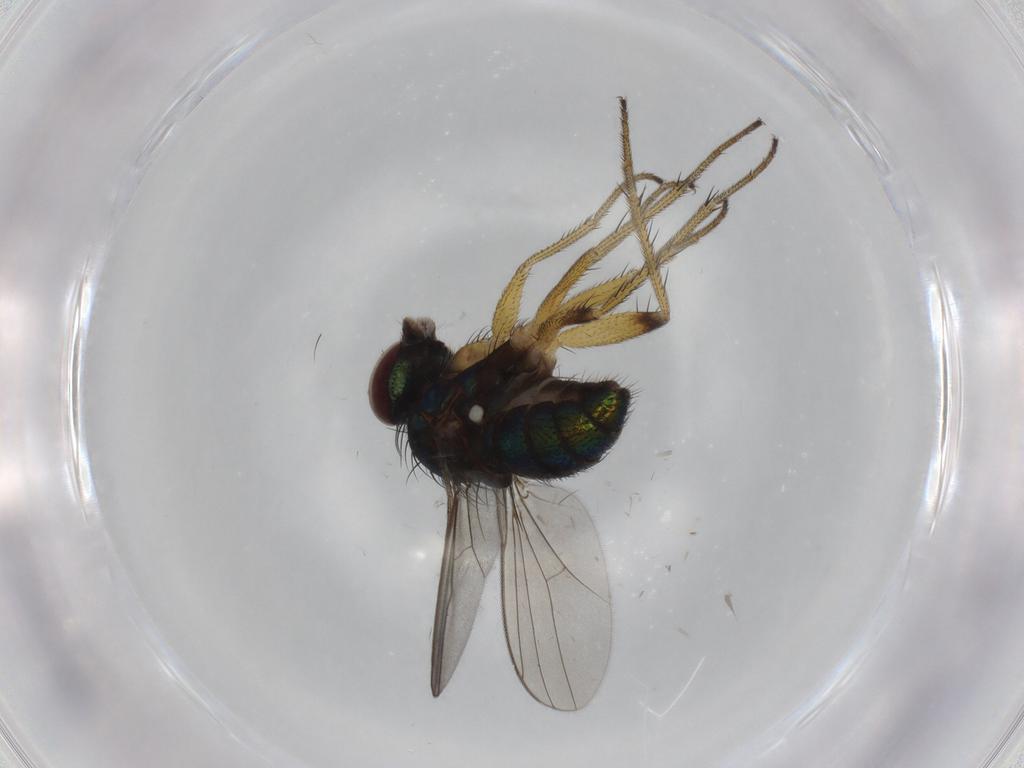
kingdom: Animalia
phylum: Arthropoda
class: Insecta
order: Diptera
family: Dolichopodidae
